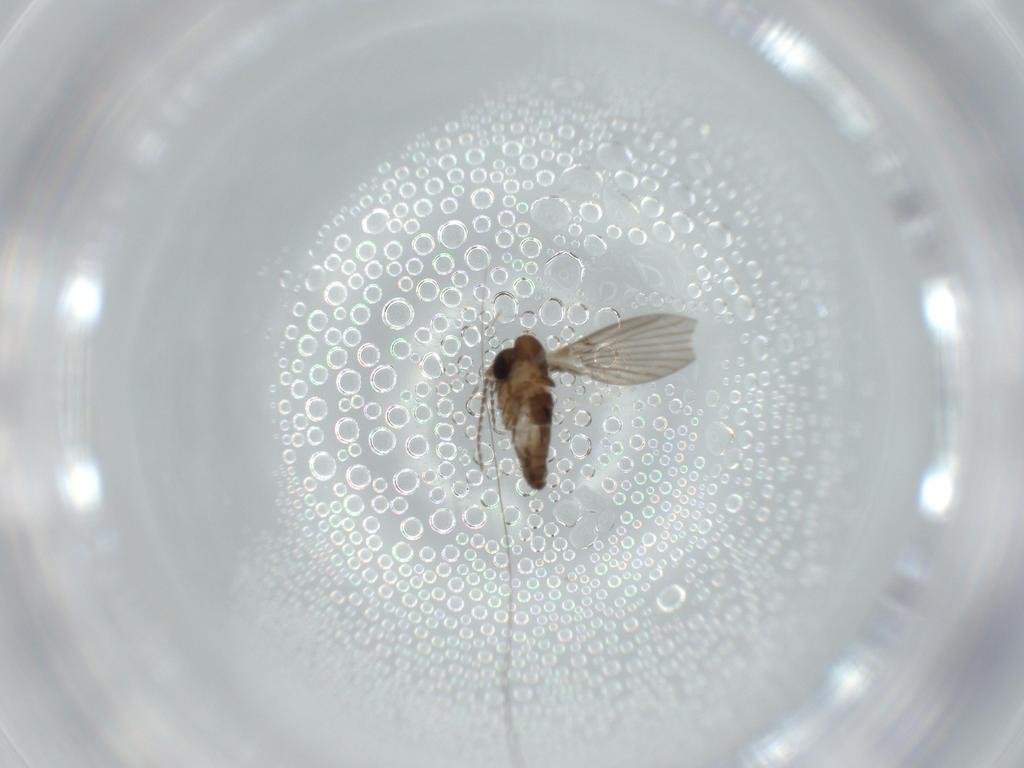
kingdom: Animalia
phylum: Arthropoda
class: Insecta
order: Diptera
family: Psychodidae
